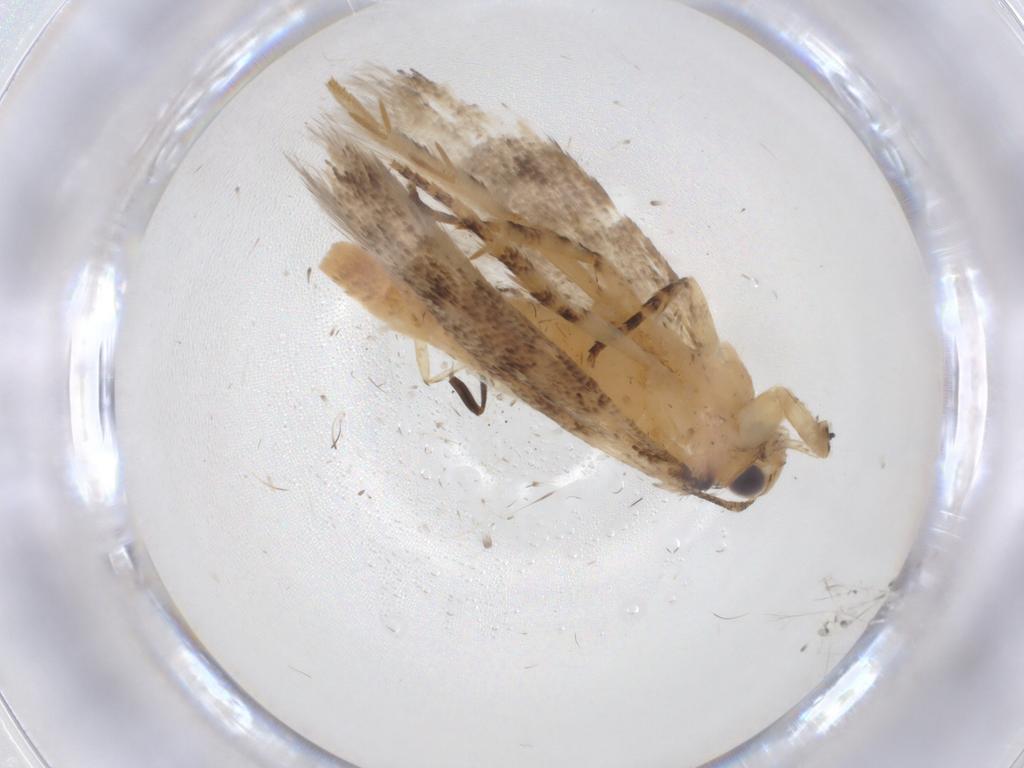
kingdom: Animalia
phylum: Arthropoda
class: Insecta
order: Lepidoptera
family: Gelechiidae
